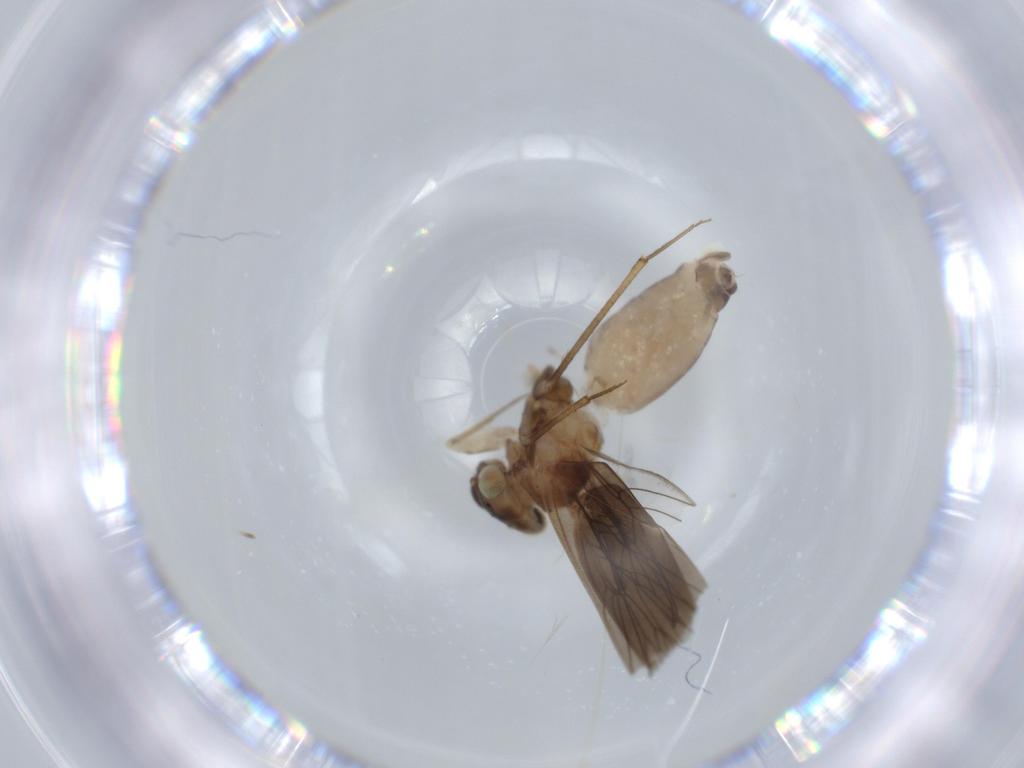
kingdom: Animalia
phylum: Arthropoda
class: Insecta
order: Psocodea
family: Lepidopsocidae
